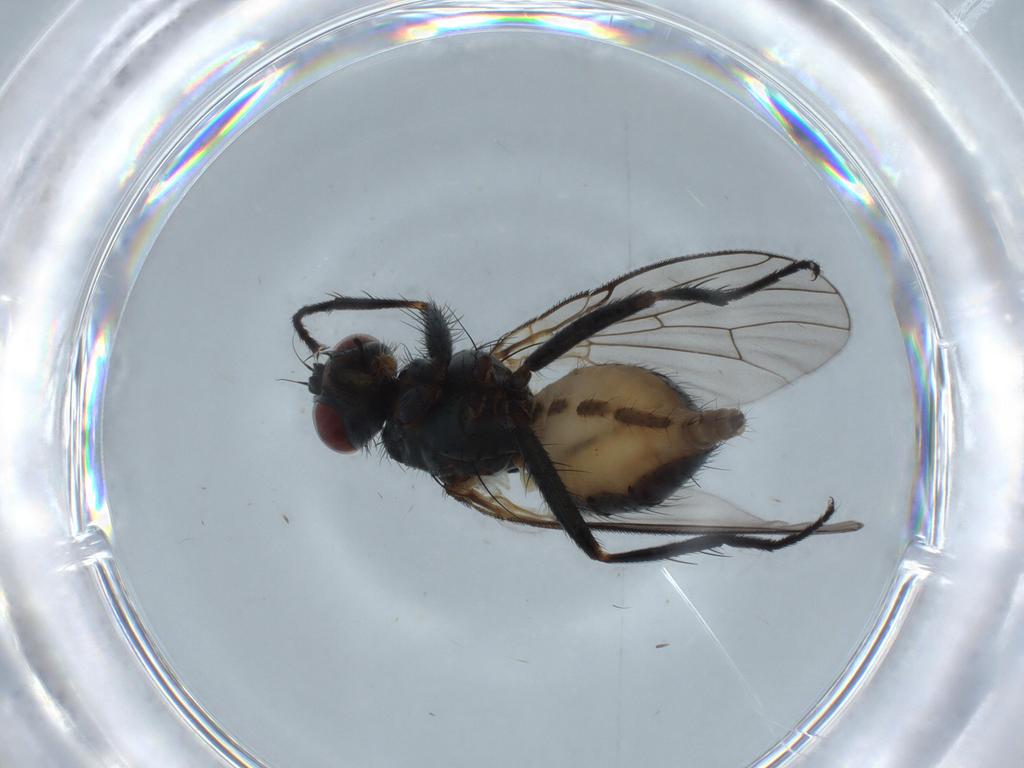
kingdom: Animalia
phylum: Arthropoda
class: Insecta
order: Diptera
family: Muscidae
